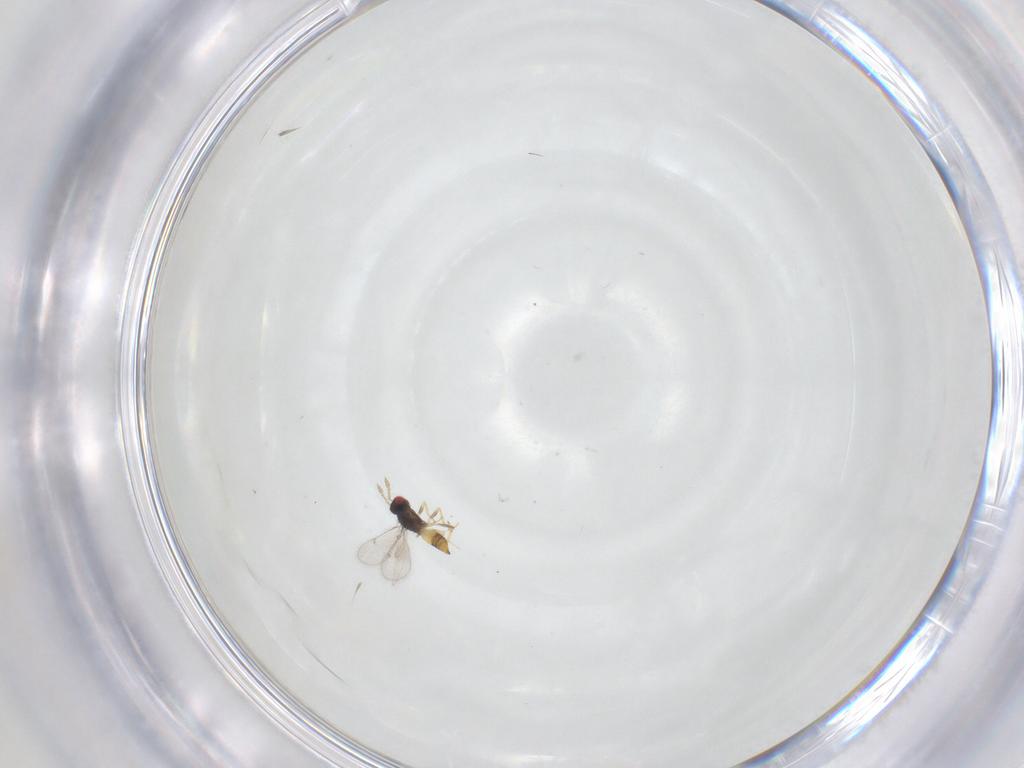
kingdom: Animalia
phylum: Arthropoda
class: Insecta
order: Hymenoptera
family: Eulophidae
